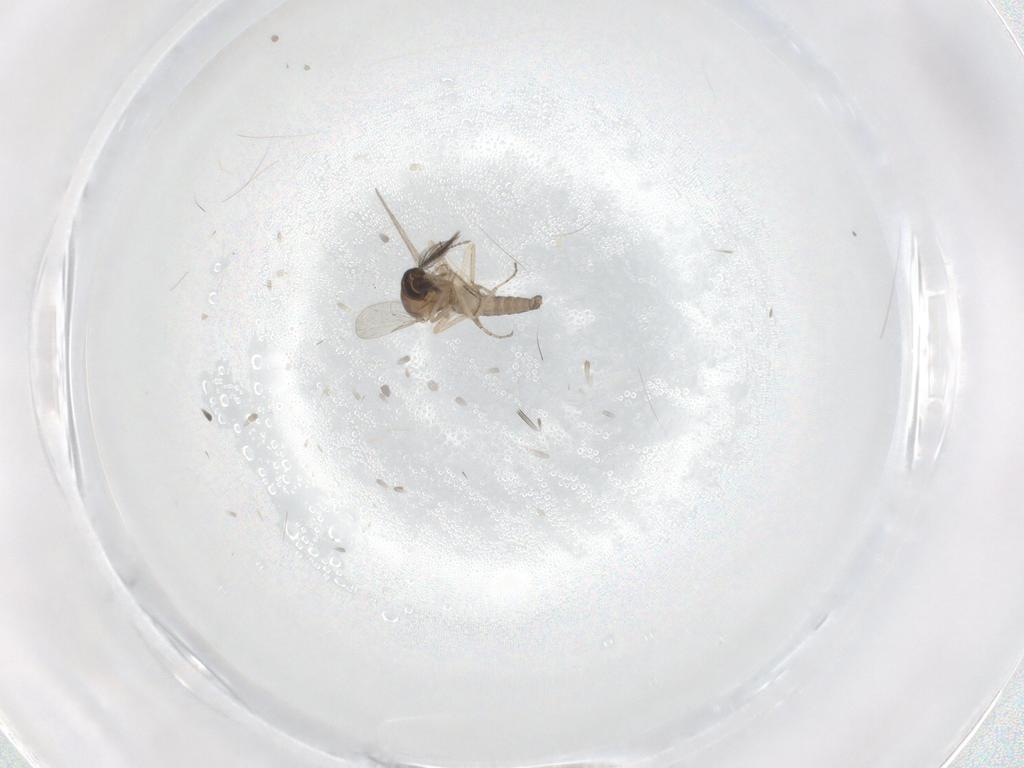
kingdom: Animalia
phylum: Arthropoda
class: Insecta
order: Diptera
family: Ceratopogonidae
